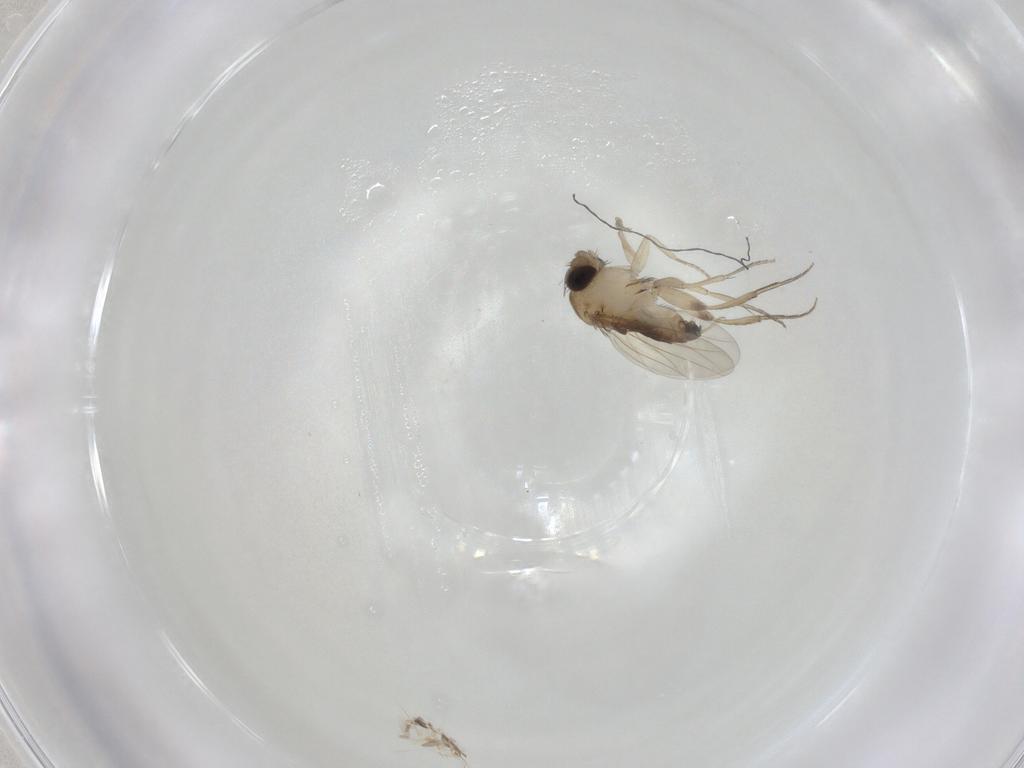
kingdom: Animalia
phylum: Arthropoda
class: Insecta
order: Diptera
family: Phoridae
